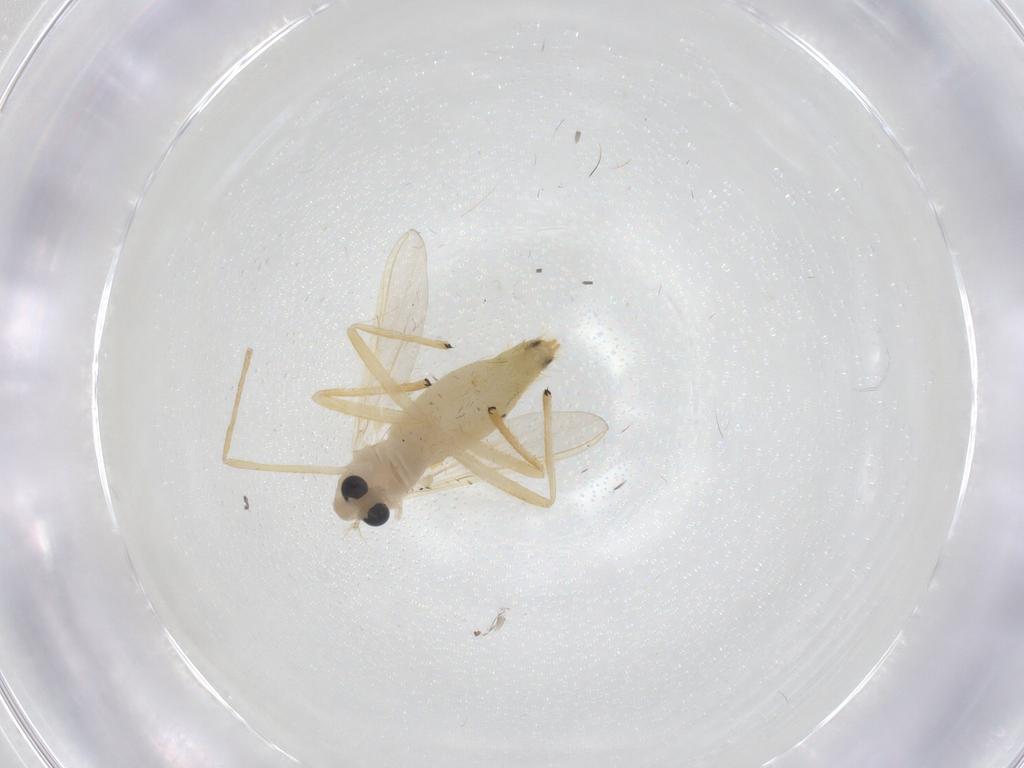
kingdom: Animalia
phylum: Arthropoda
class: Insecta
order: Diptera
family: Chironomidae
